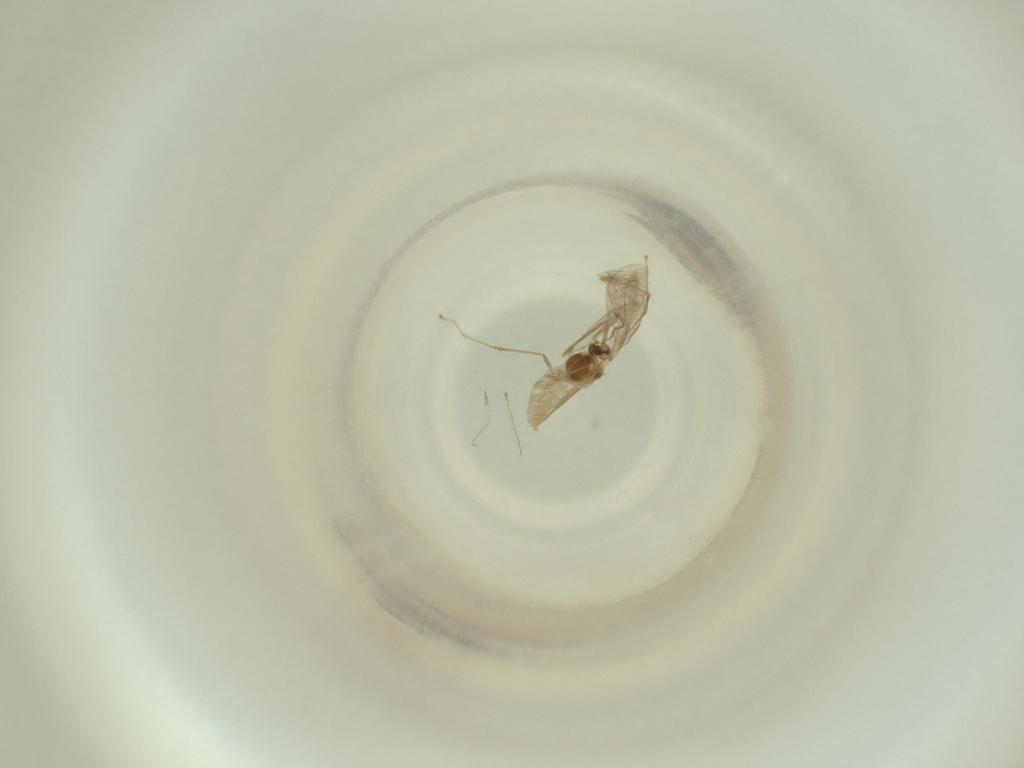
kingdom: Animalia
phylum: Arthropoda
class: Insecta
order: Diptera
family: Cecidomyiidae
